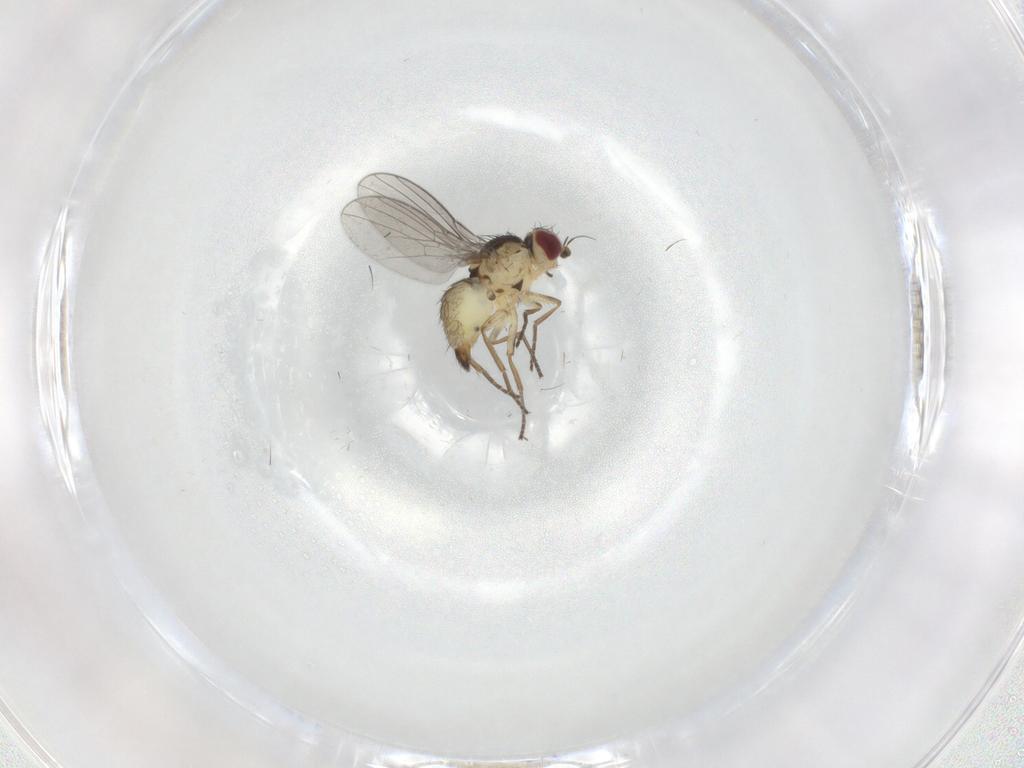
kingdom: Animalia
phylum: Arthropoda
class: Insecta
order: Diptera
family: Agromyzidae
